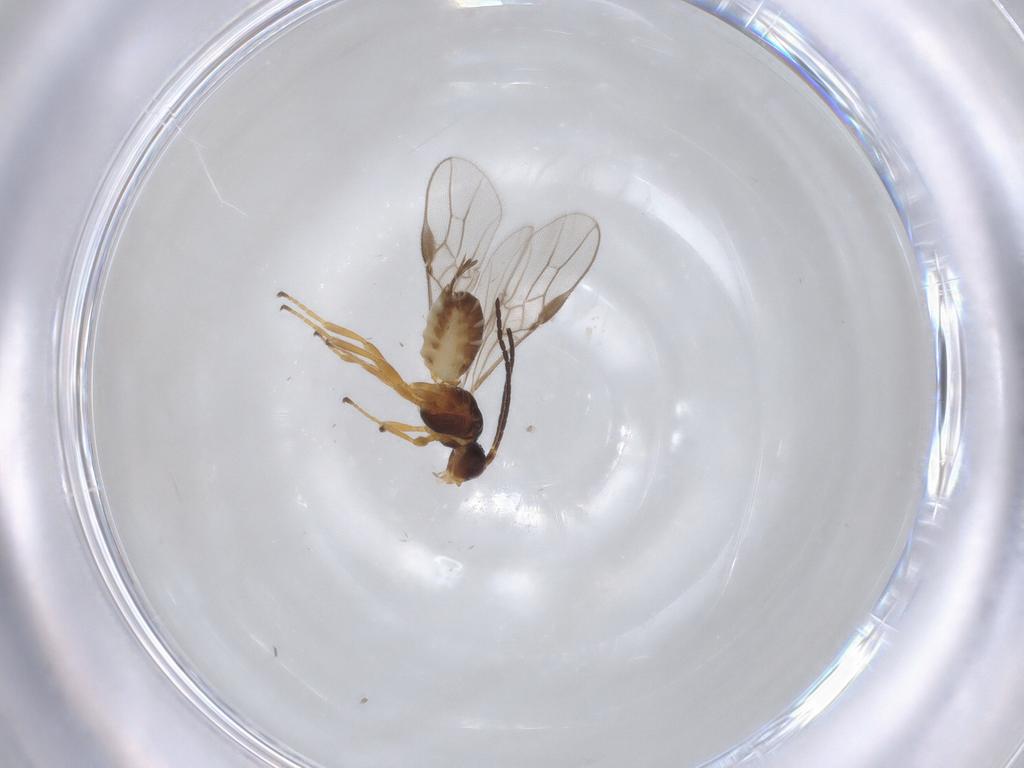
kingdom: Animalia
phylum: Arthropoda
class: Insecta
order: Hymenoptera
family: Braconidae
